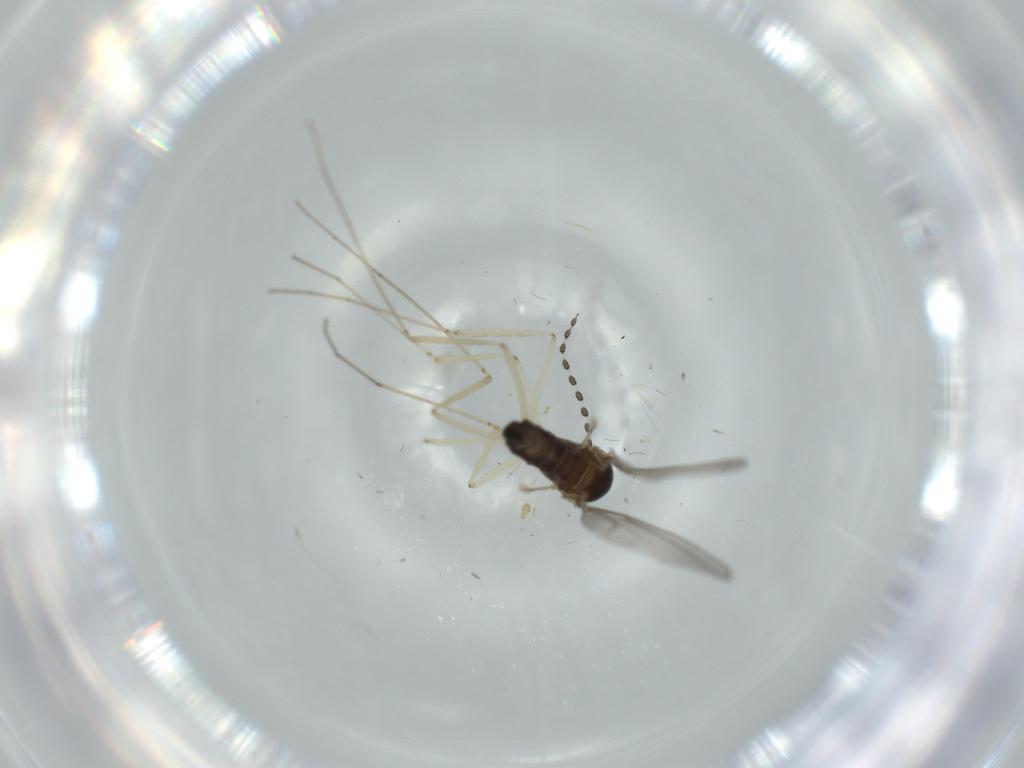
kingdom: Animalia
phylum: Arthropoda
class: Insecta
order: Diptera
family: Cecidomyiidae
